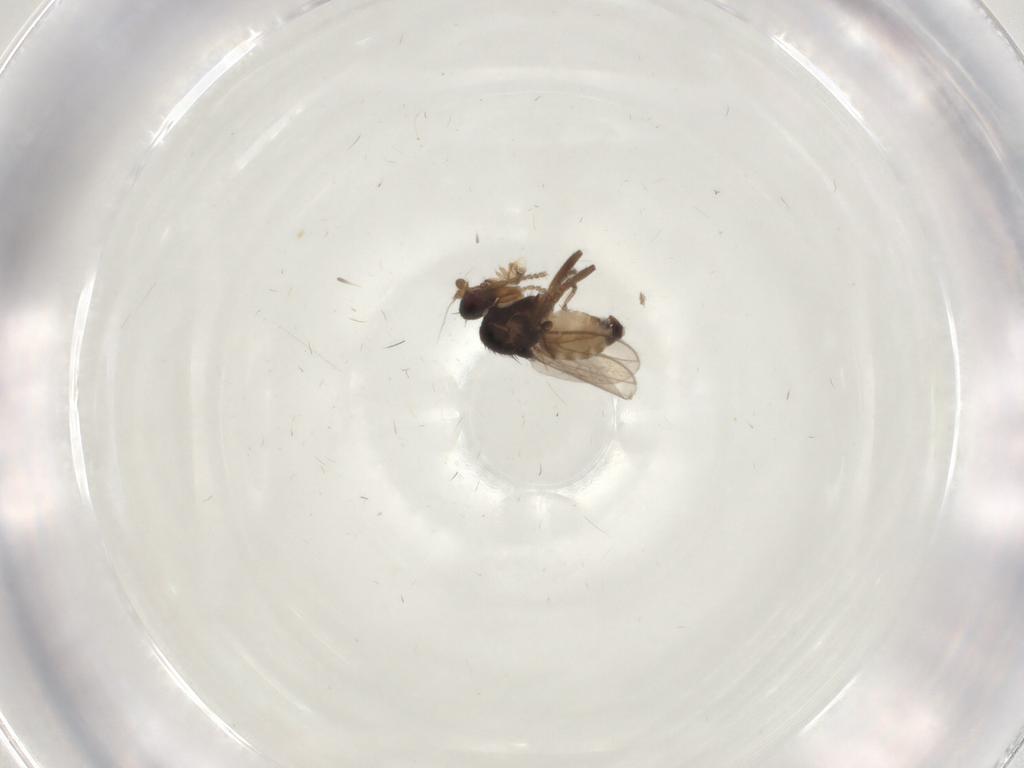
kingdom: Animalia
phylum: Arthropoda
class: Insecta
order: Diptera
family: Sphaeroceridae
